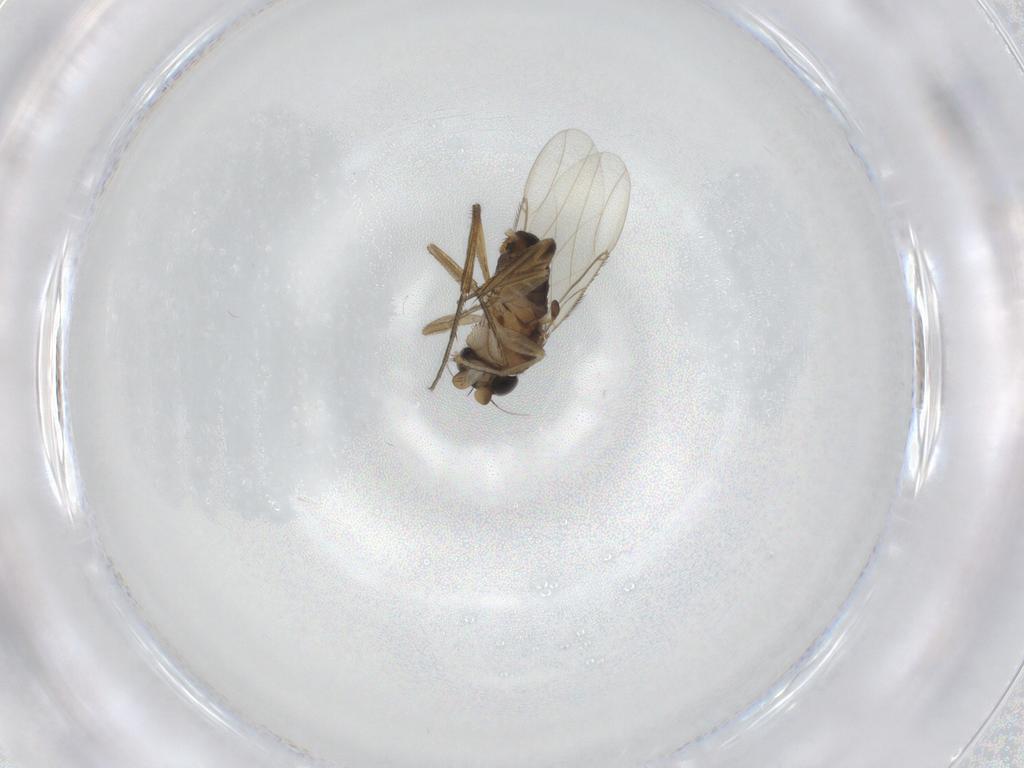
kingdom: Animalia
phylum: Arthropoda
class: Insecta
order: Diptera
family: Phoridae
